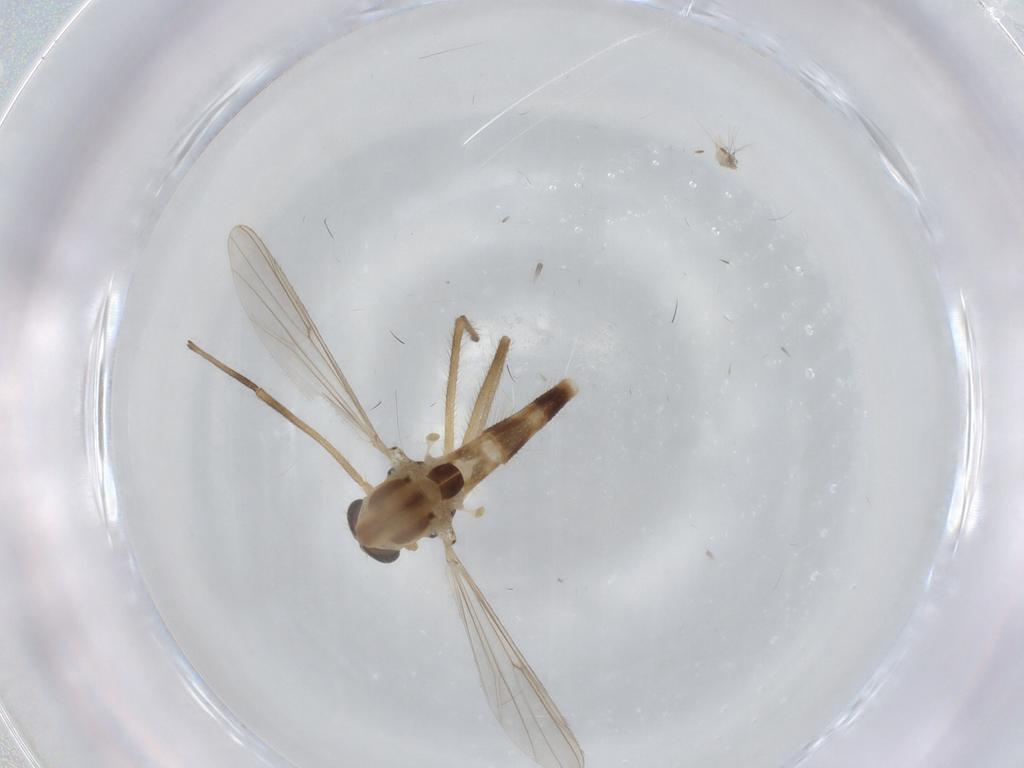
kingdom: Animalia
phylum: Arthropoda
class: Insecta
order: Diptera
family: Chironomidae
